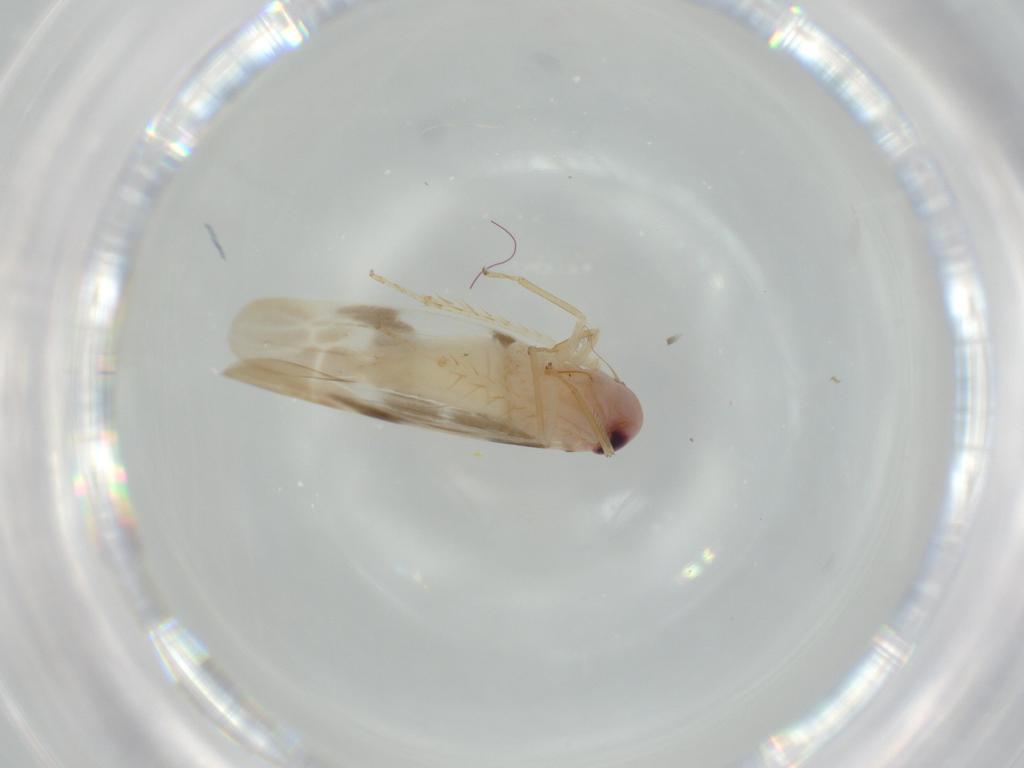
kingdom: Animalia
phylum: Arthropoda
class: Insecta
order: Hemiptera
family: Cicadellidae
